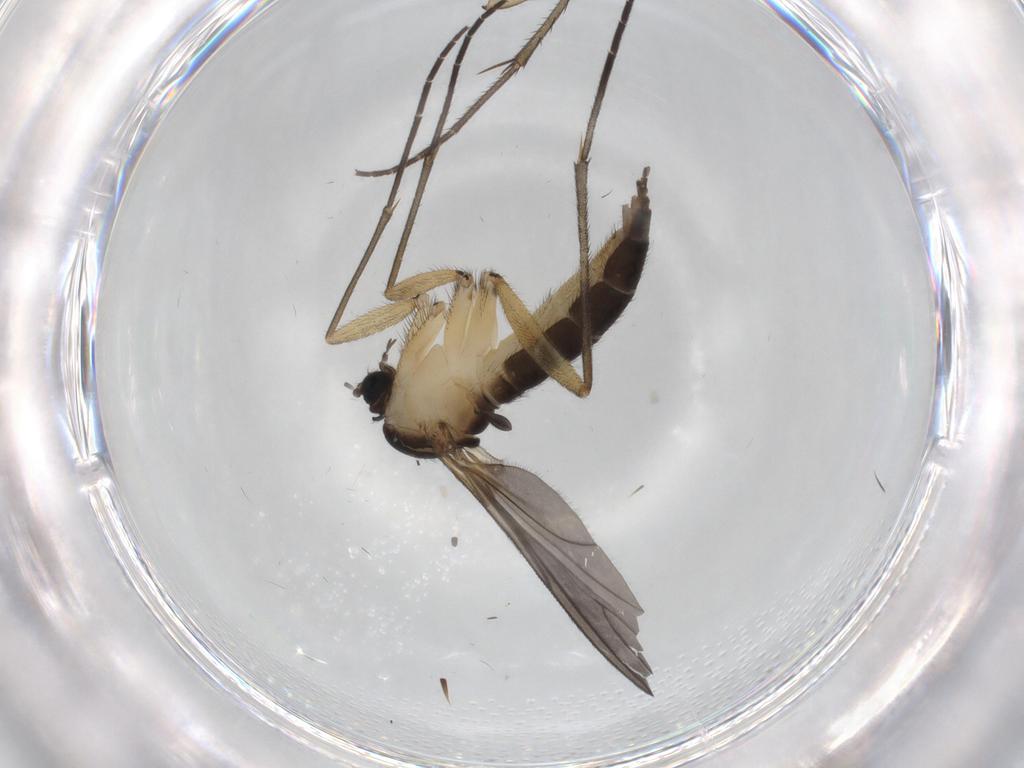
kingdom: Animalia
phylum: Arthropoda
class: Insecta
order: Diptera
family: Sciaridae
